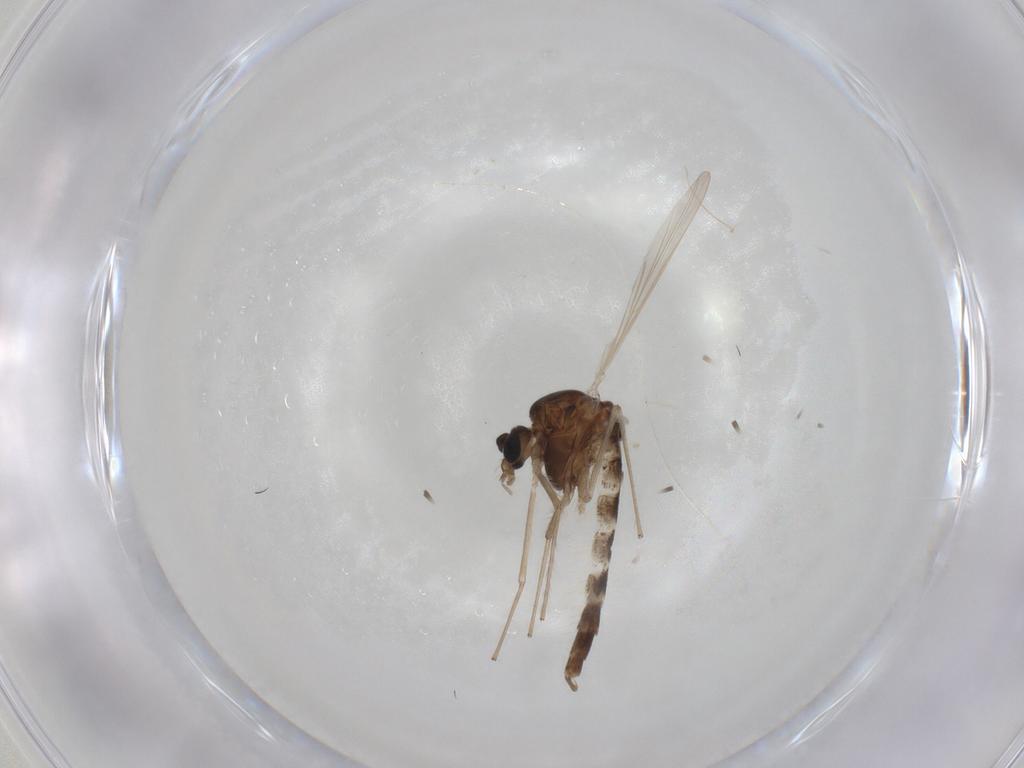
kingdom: Animalia
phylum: Arthropoda
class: Insecta
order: Diptera
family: Chironomidae
